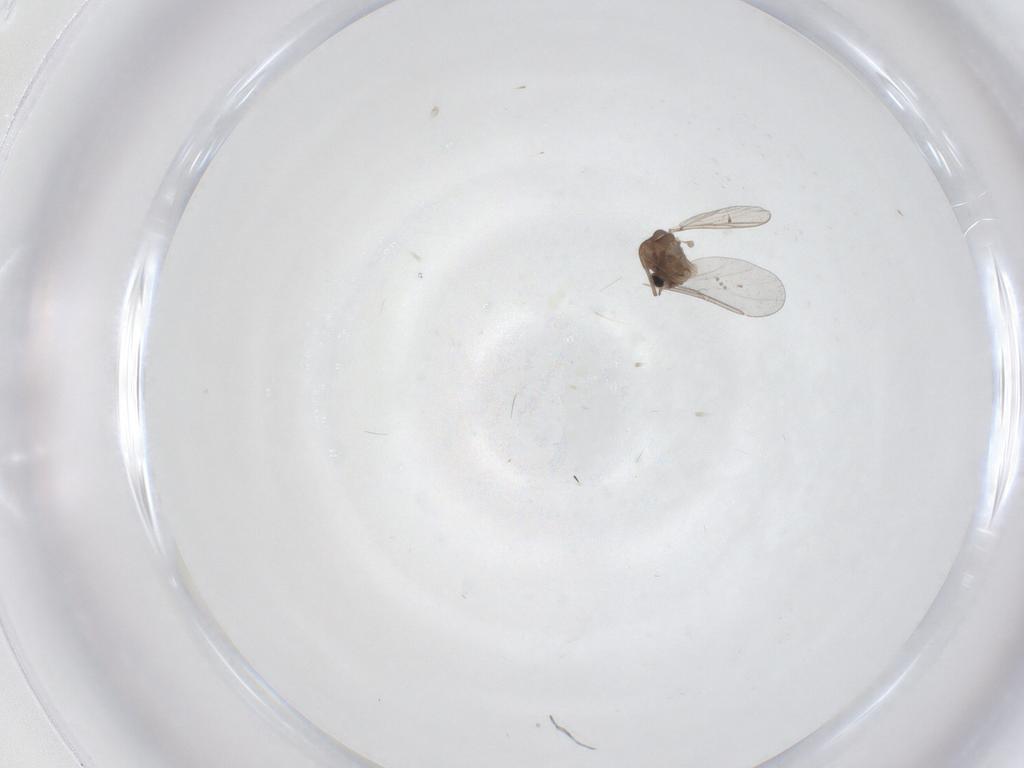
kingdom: Animalia
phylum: Arthropoda
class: Insecta
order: Diptera
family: Chironomidae
